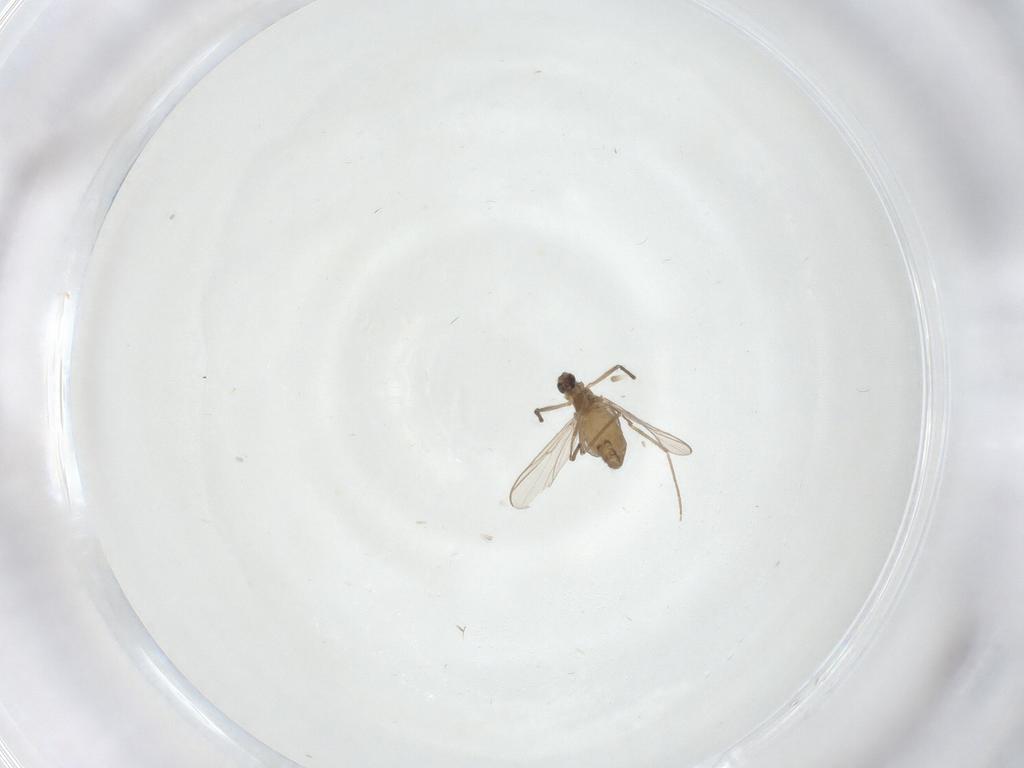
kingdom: Animalia
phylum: Arthropoda
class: Insecta
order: Diptera
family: Chironomidae
